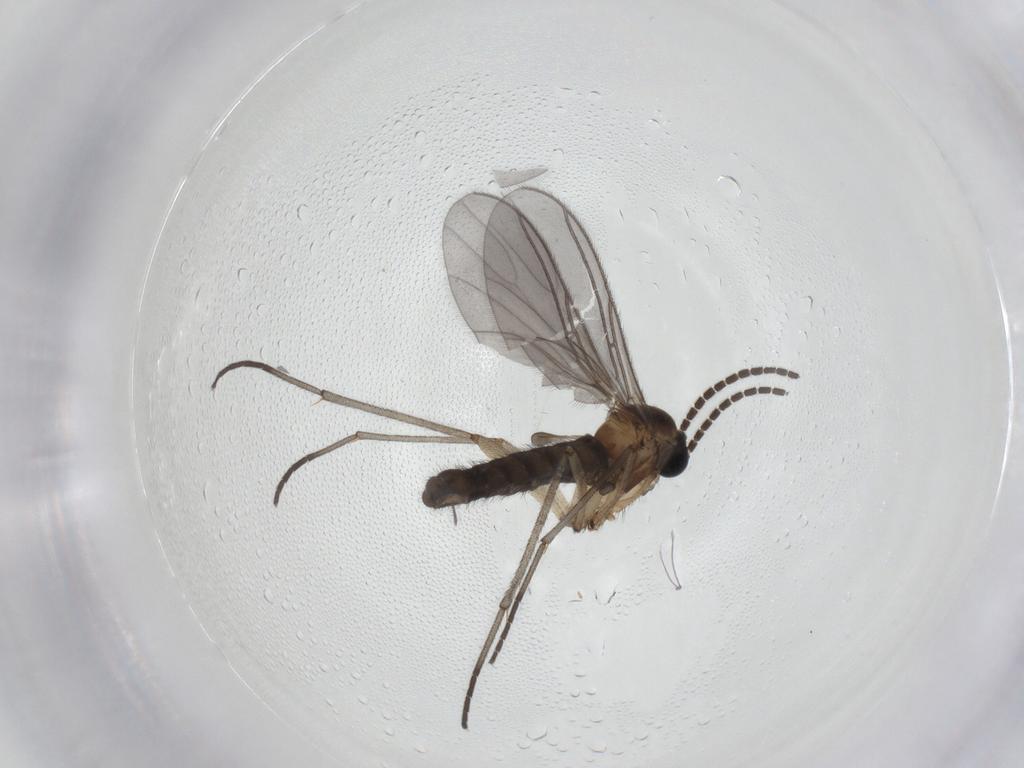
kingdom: Animalia
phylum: Arthropoda
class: Insecta
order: Diptera
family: Sciaridae
